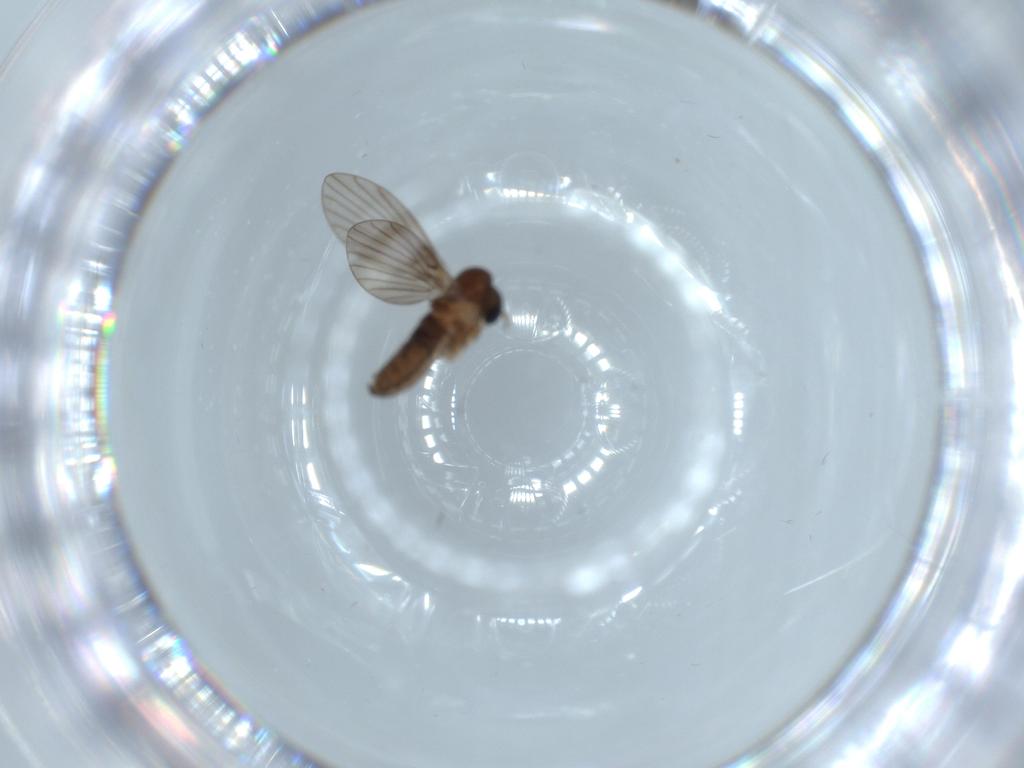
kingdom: Animalia
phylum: Arthropoda
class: Insecta
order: Diptera
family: Psychodidae
